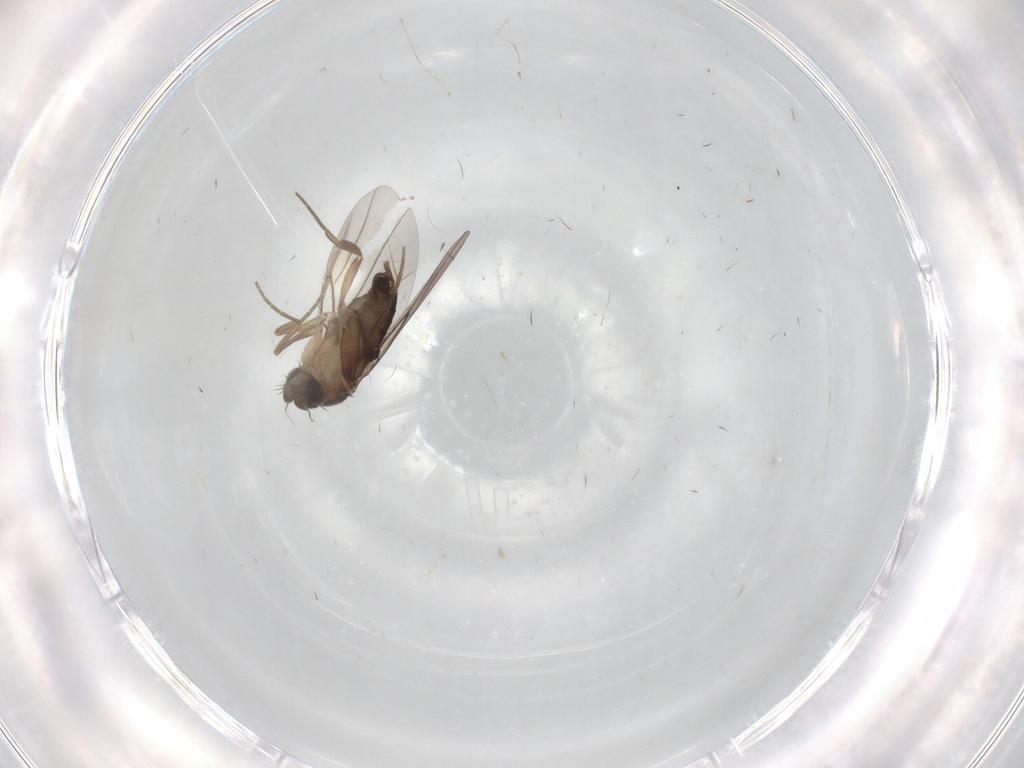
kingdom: Animalia
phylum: Arthropoda
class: Insecta
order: Diptera
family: Phoridae
